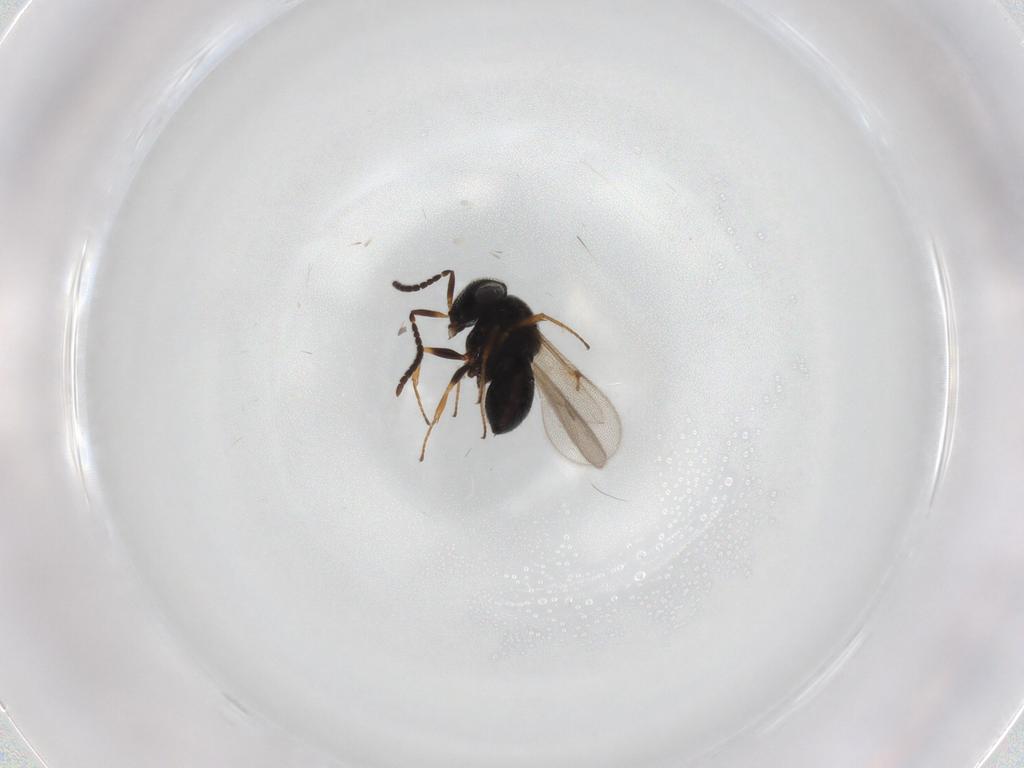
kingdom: Animalia
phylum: Arthropoda
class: Insecta
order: Hymenoptera
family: Scelionidae
